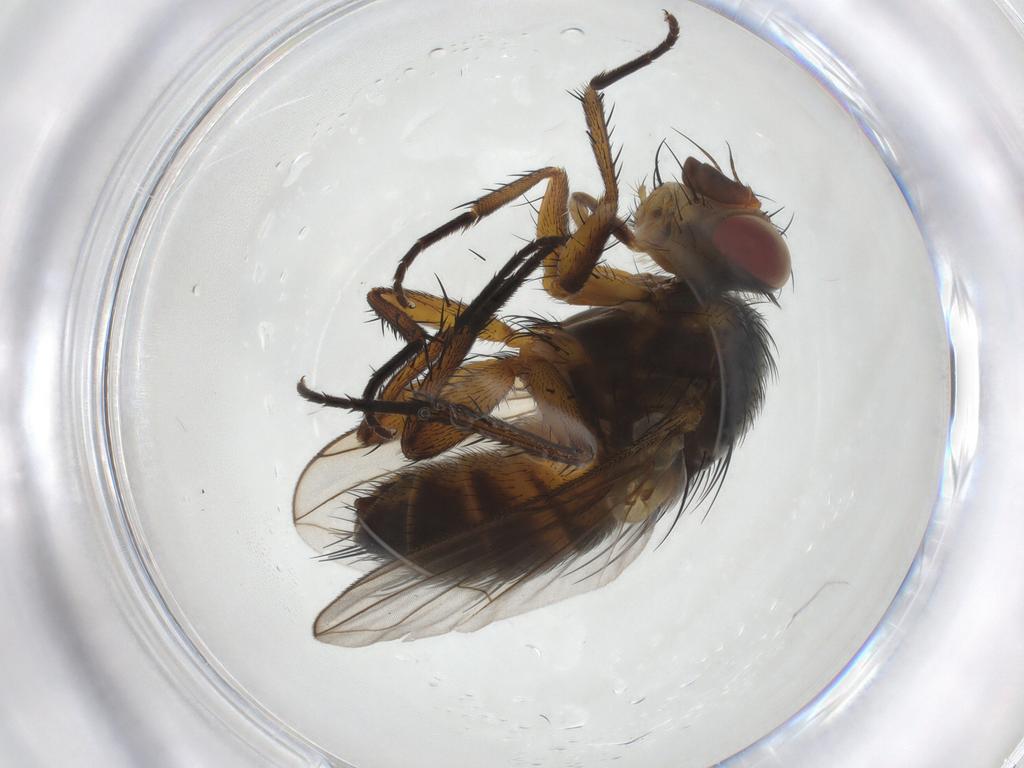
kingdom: Animalia
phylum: Arthropoda
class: Insecta
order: Diptera
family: Tachinidae
